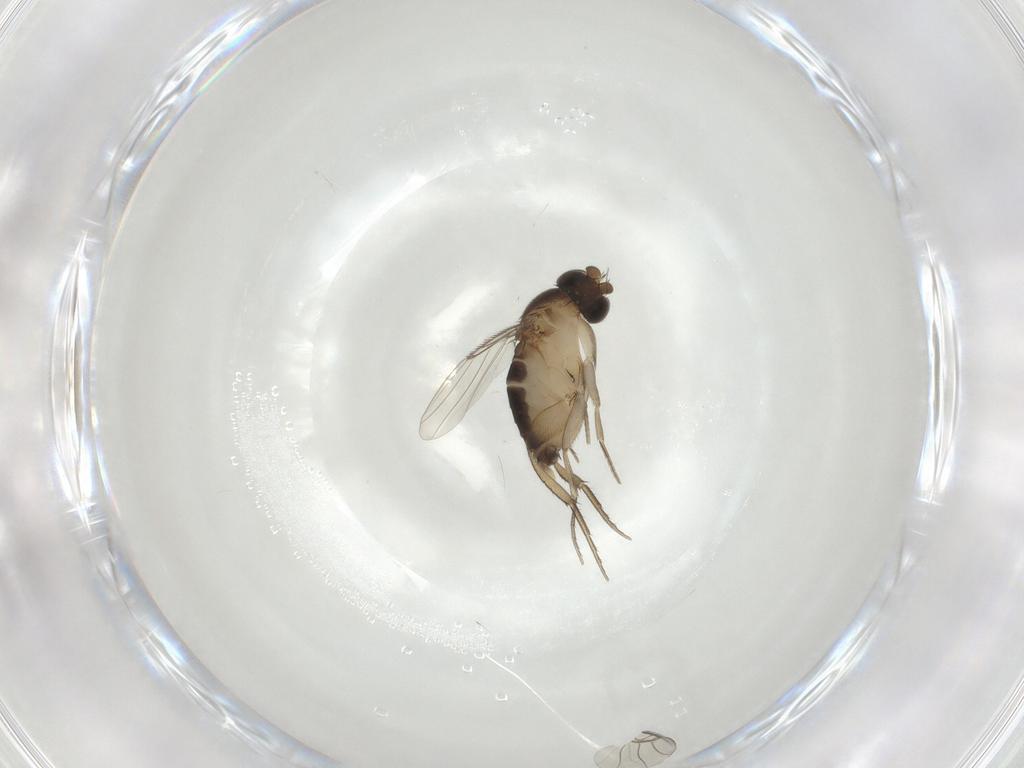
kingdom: Animalia
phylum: Arthropoda
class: Insecta
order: Diptera
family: Phoridae
